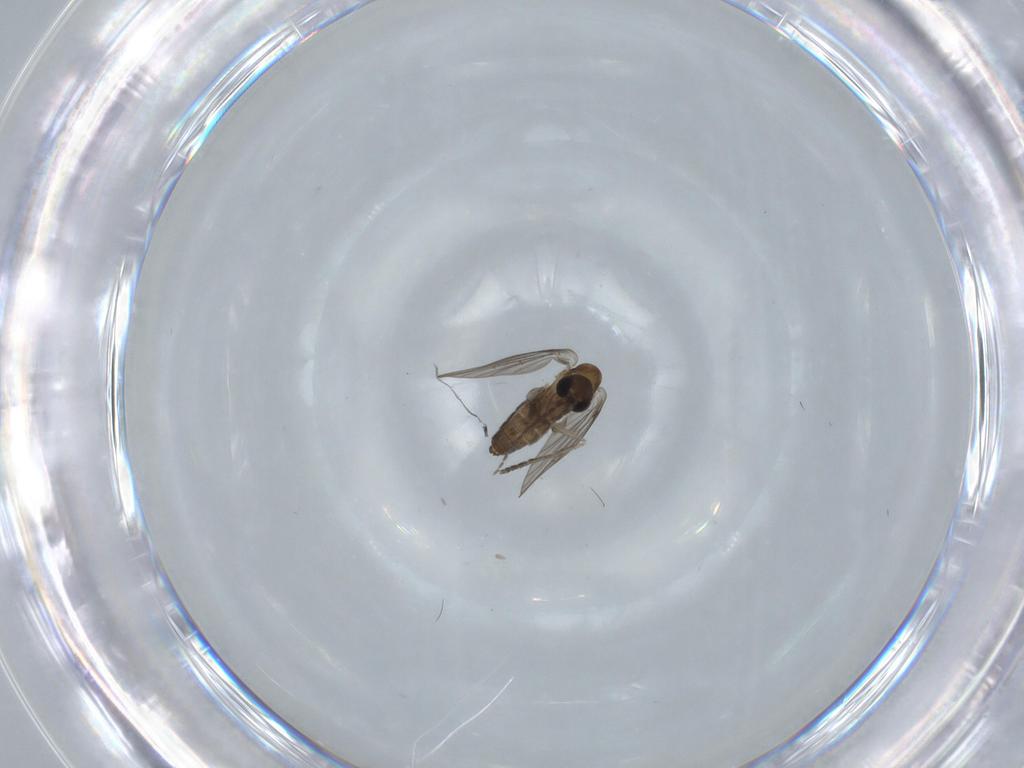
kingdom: Animalia
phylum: Arthropoda
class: Insecta
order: Diptera
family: Psychodidae
